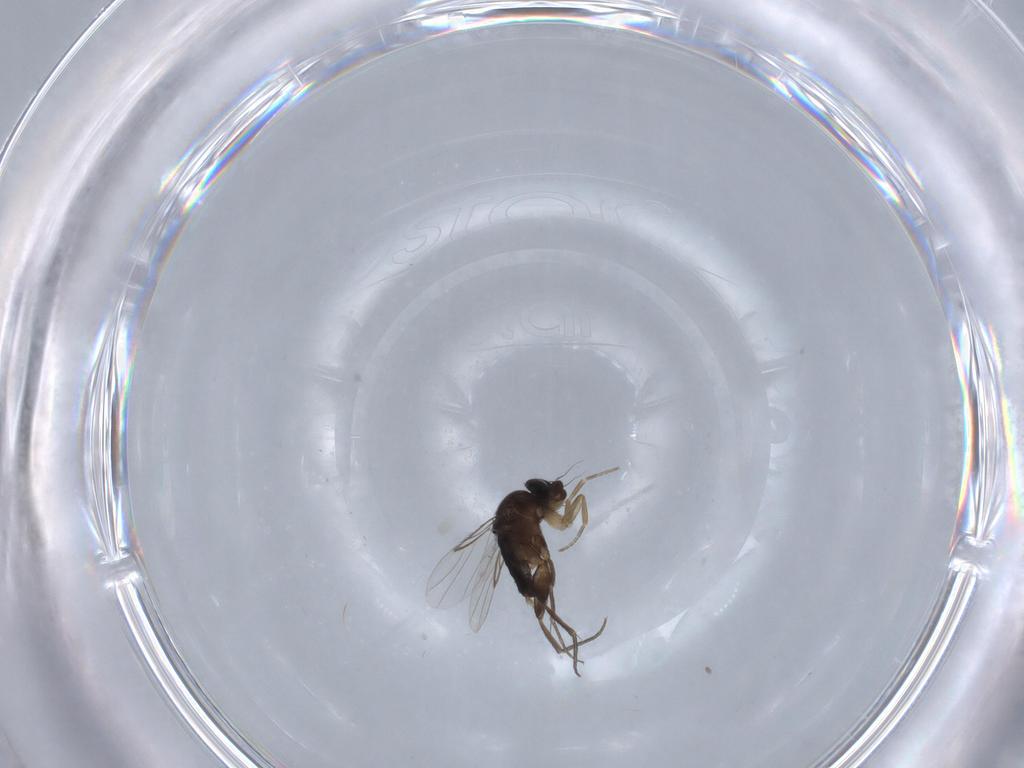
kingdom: Animalia
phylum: Arthropoda
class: Insecta
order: Diptera
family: Phoridae
